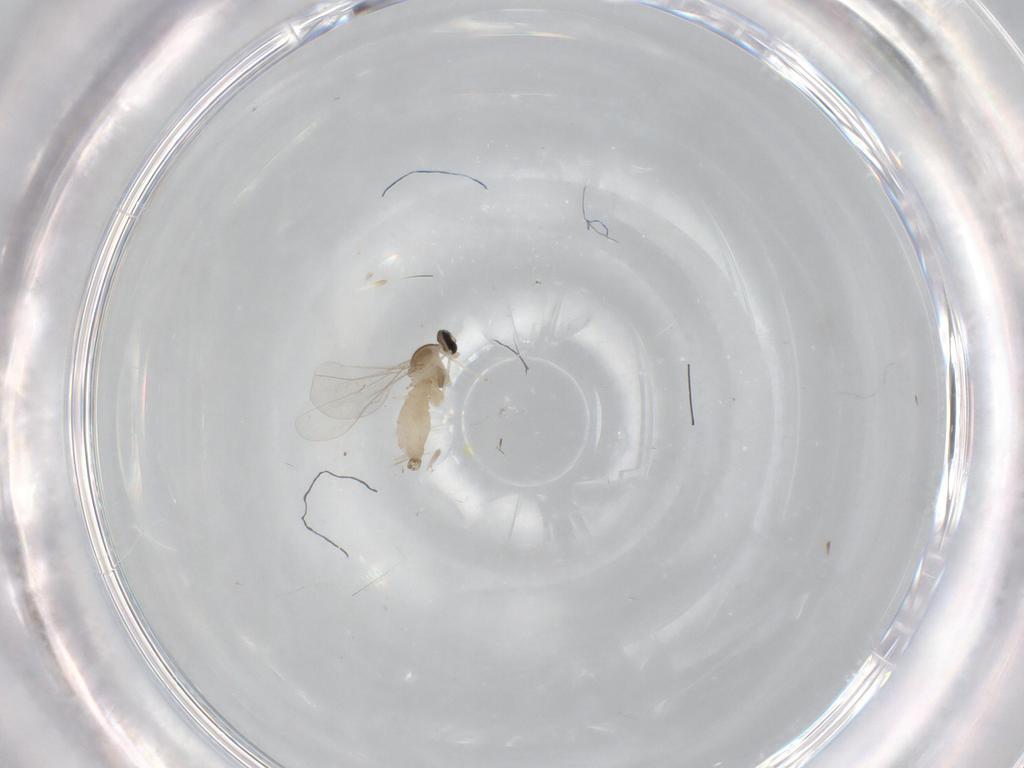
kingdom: Animalia
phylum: Arthropoda
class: Insecta
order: Diptera
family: Cecidomyiidae
